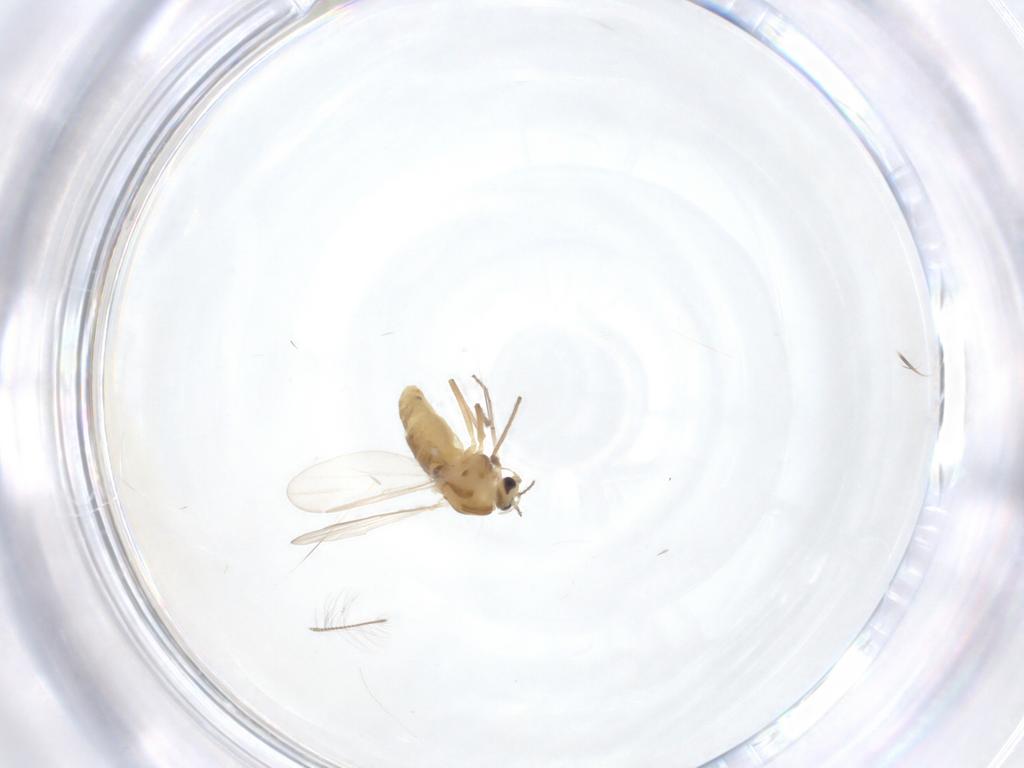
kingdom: Animalia
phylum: Arthropoda
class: Insecta
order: Diptera
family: Chironomidae
